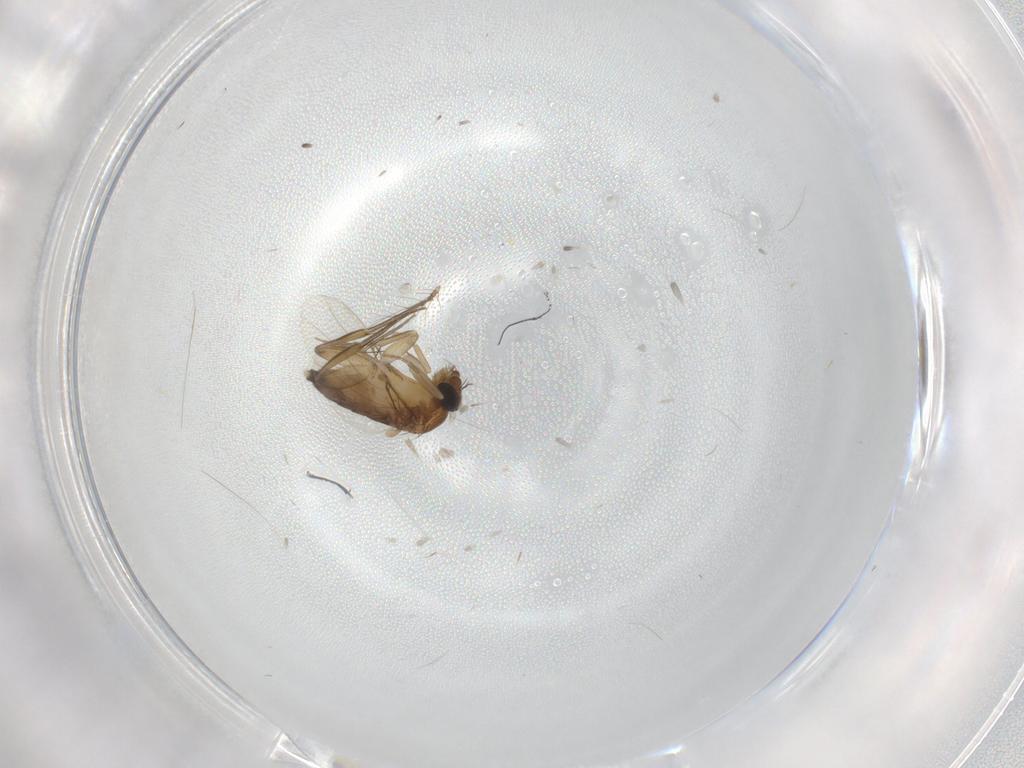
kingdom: Animalia
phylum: Arthropoda
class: Insecta
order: Diptera
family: Phoridae
